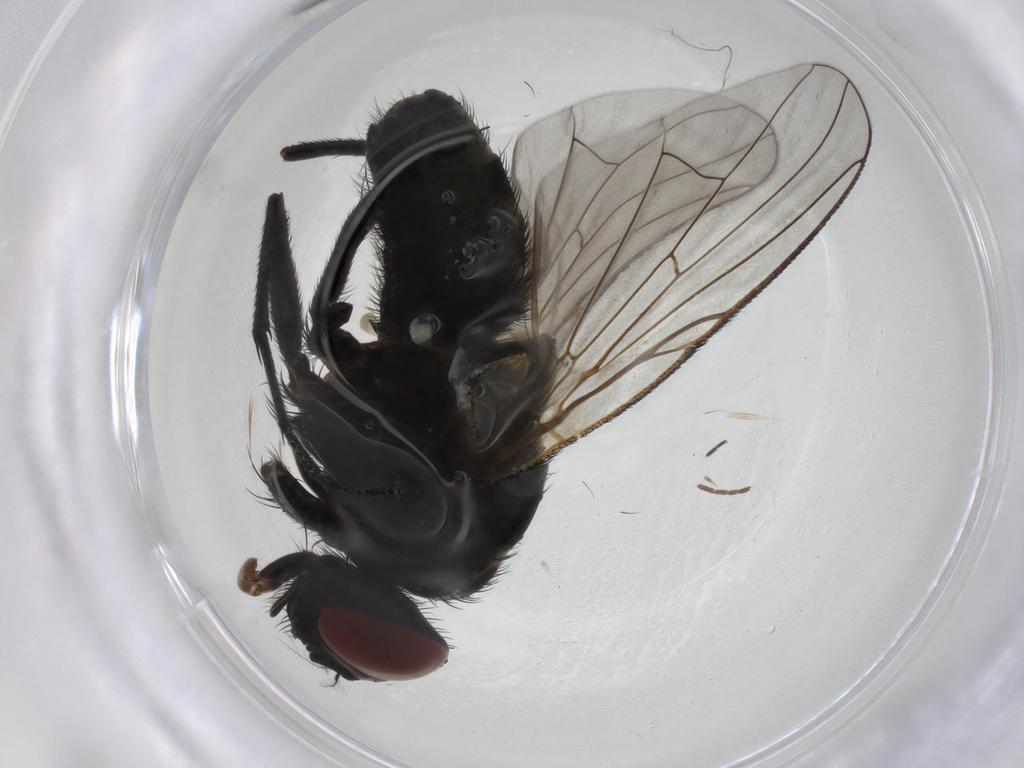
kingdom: Animalia
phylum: Arthropoda
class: Insecta
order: Diptera
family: Muscidae
